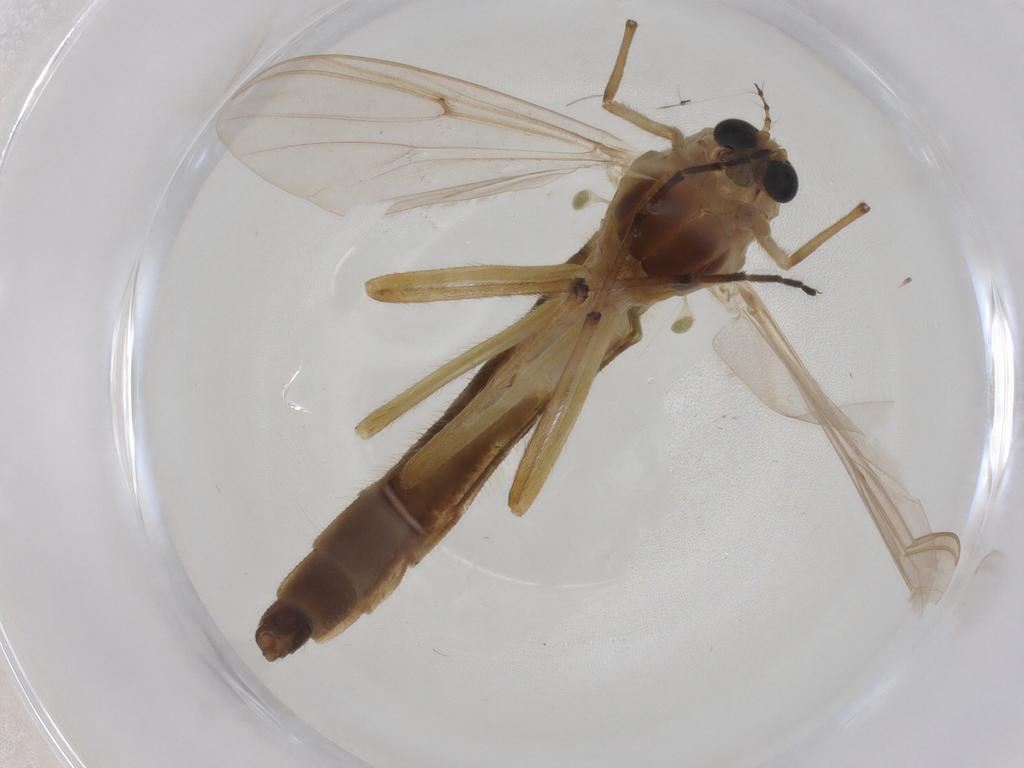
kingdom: Animalia
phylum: Arthropoda
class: Insecta
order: Diptera
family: Chironomidae
